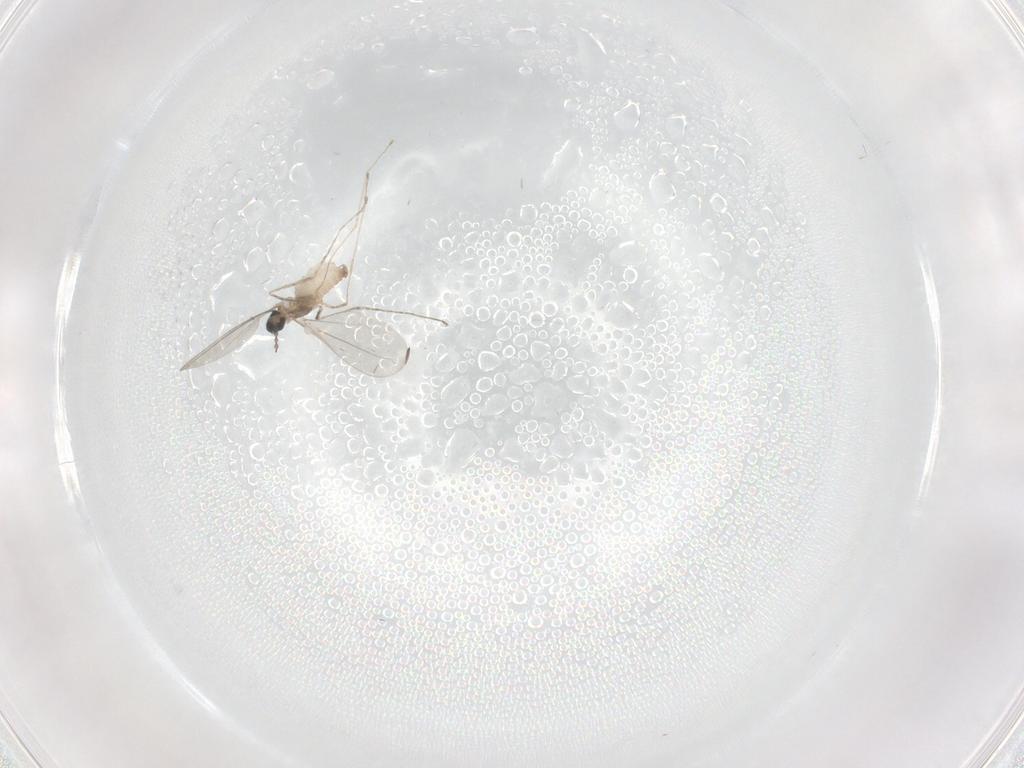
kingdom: Animalia
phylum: Arthropoda
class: Insecta
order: Diptera
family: Cecidomyiidae
